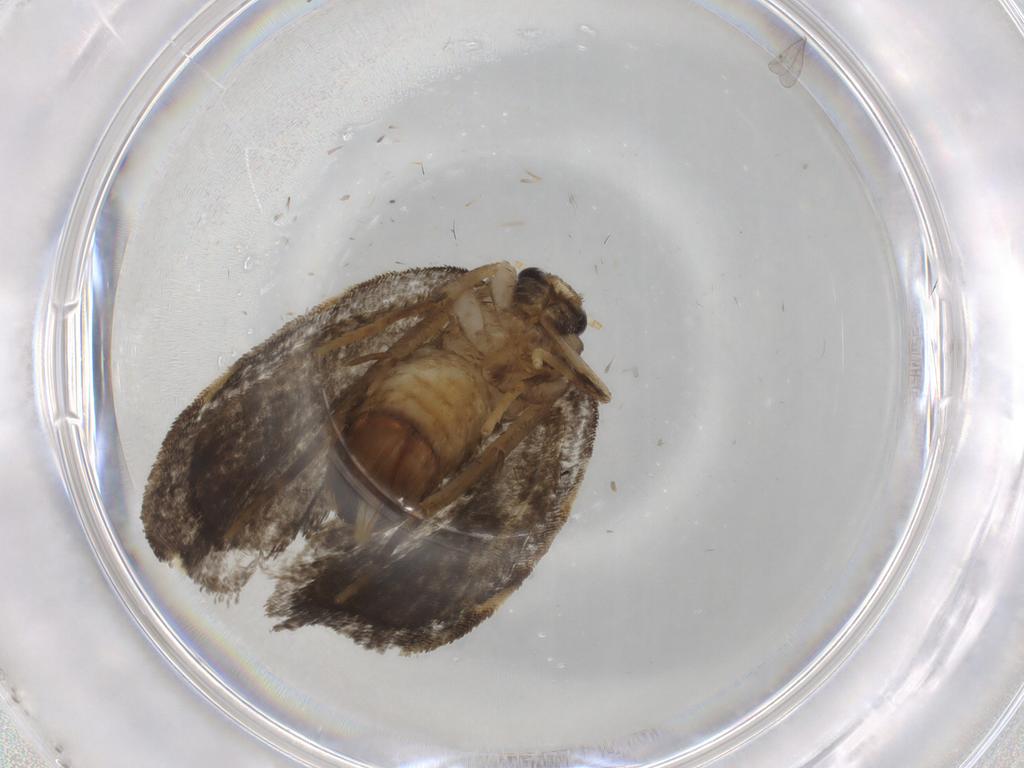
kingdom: Animalia
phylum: Arthropoda
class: Insecta
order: Lepidoptera
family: Psychidae
